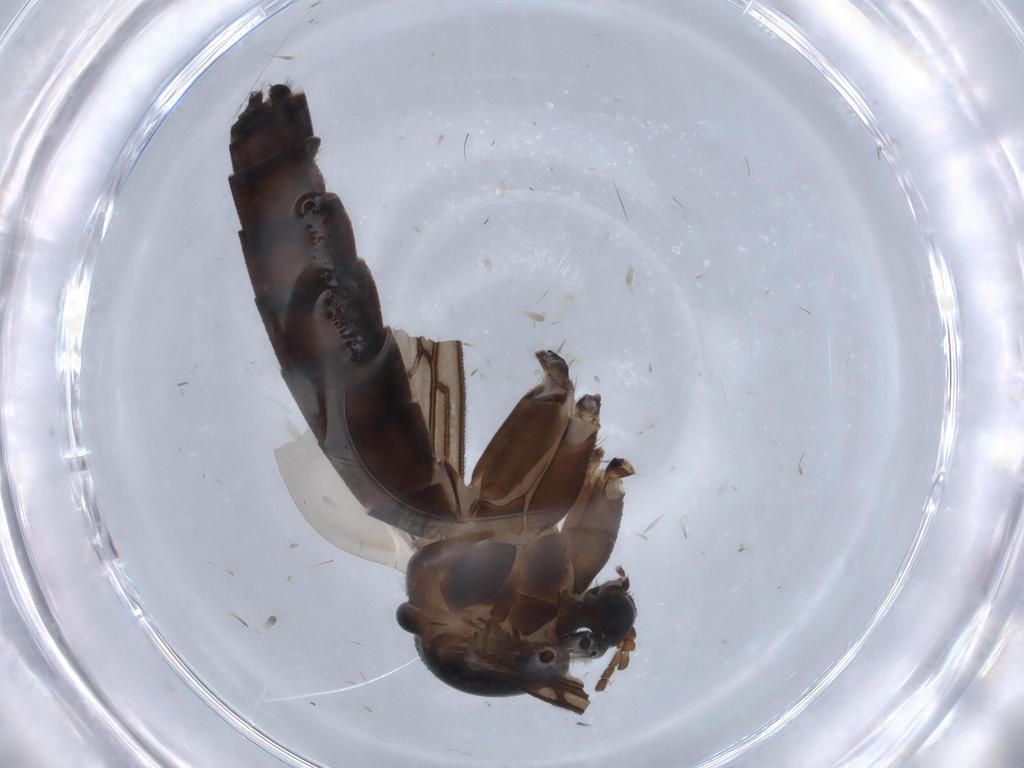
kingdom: Animalia
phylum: Arthropoda
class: Insecta
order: Diptera
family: Mycetophilidae
